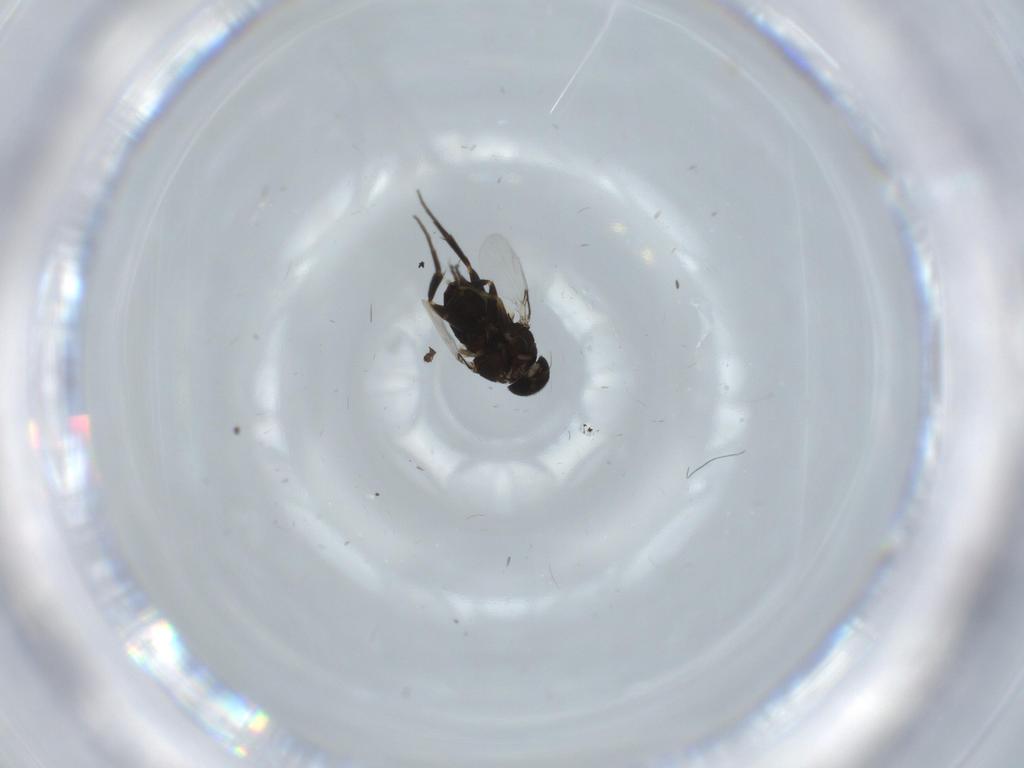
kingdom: Animalia
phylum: Arthropoda
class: Insecta
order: Diptera
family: Phoridae
